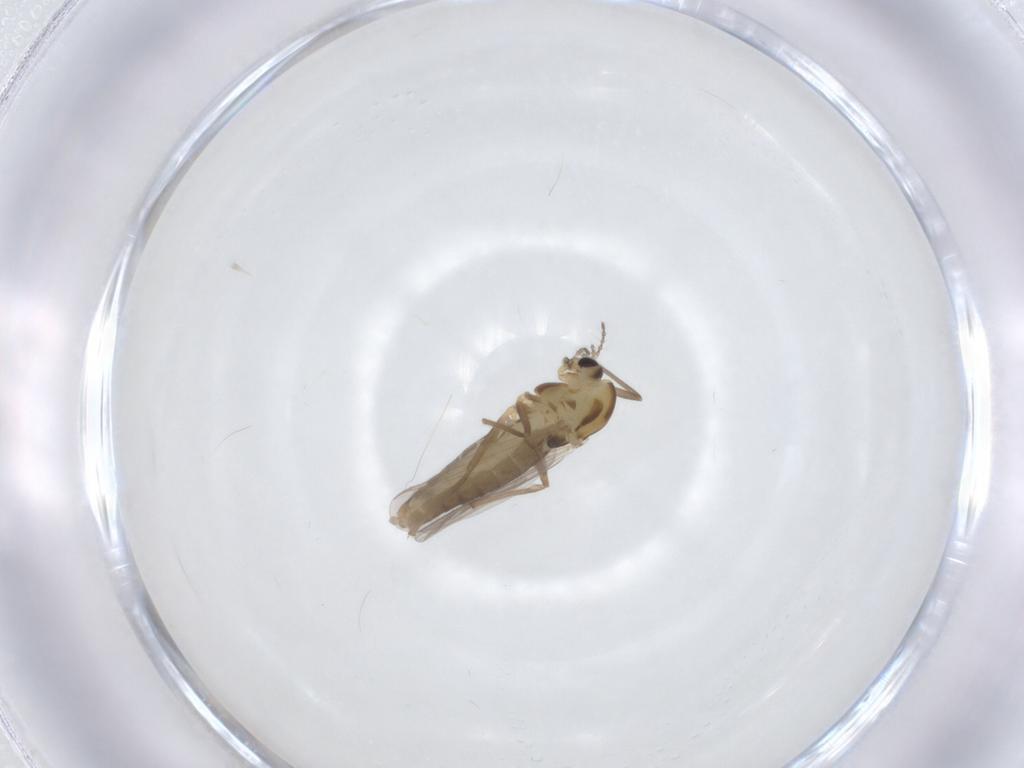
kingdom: Animalia
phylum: Arthropoda
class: Insecta
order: Diptera
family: Chironomidae
